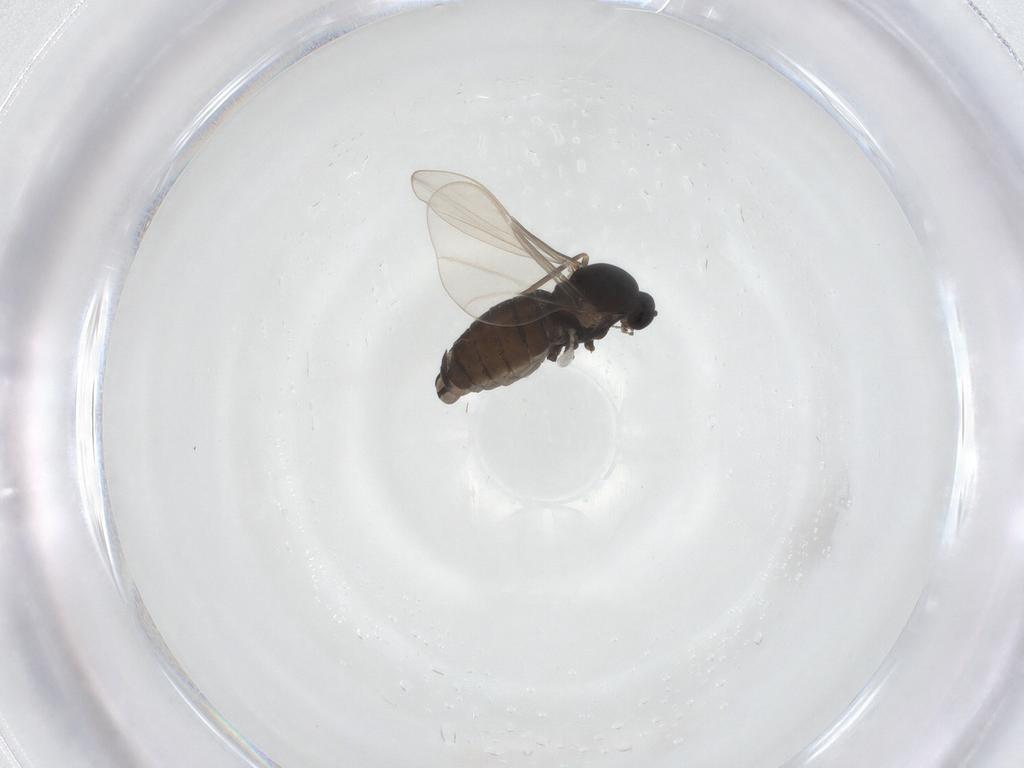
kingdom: Animalia
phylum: Arthropoda
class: Insecta
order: Diptera
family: Cecidomyiidae
